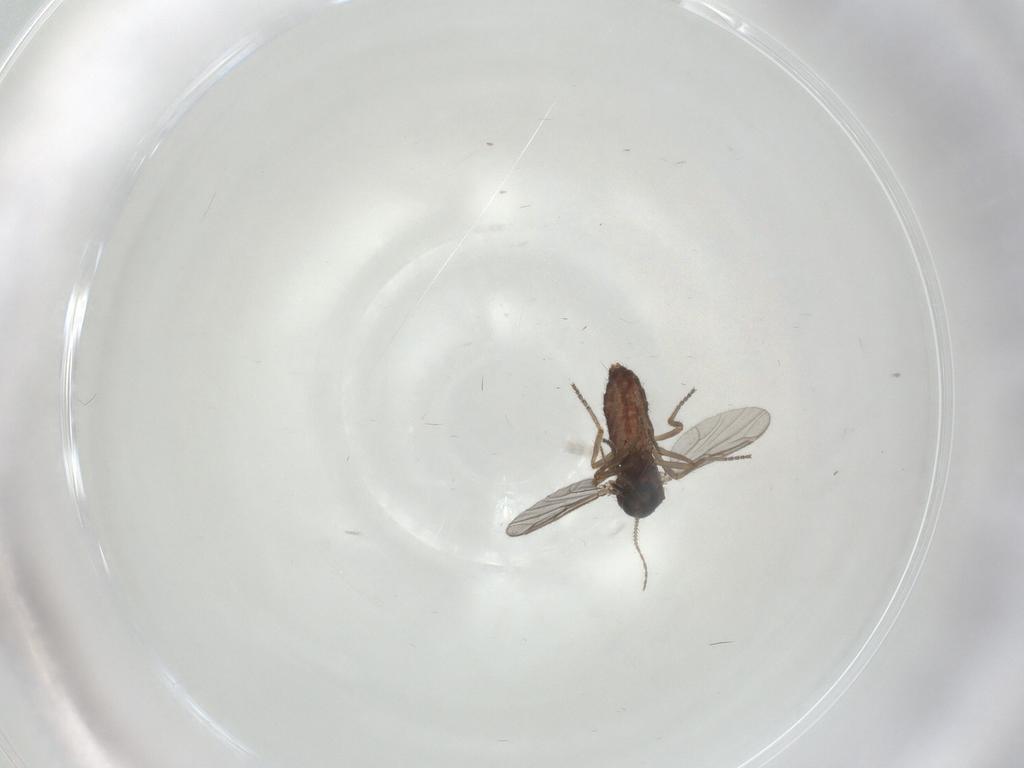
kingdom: Animalia
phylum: Arthropoda
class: Insecta
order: Diptera
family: Ceratopogonidae
